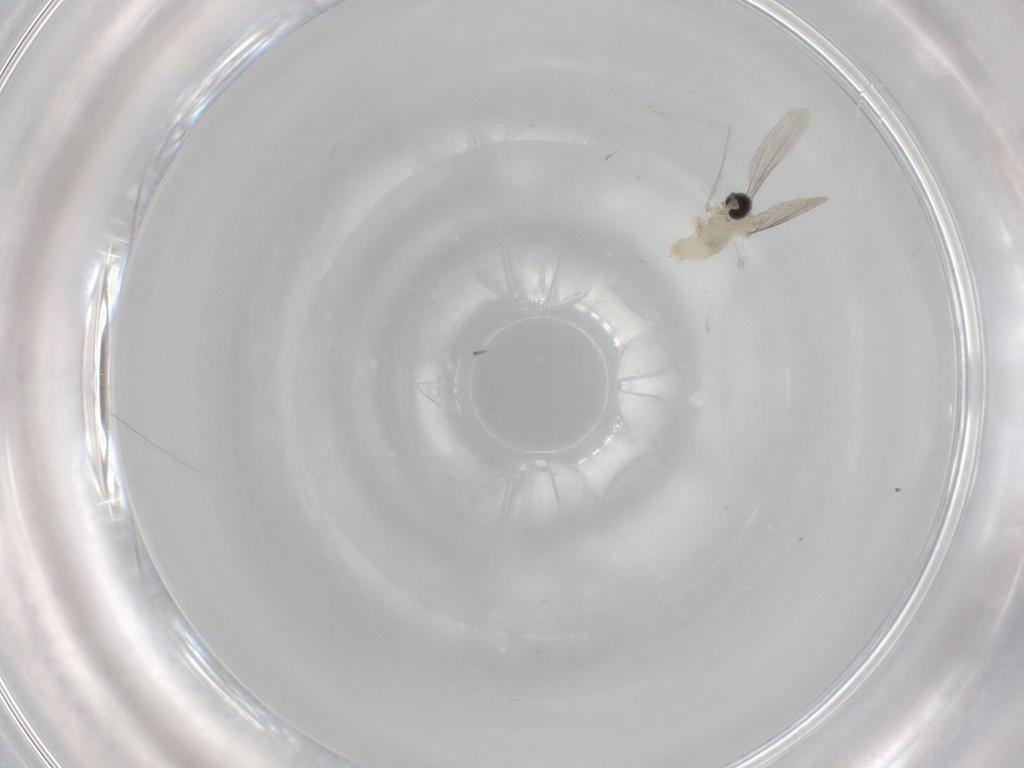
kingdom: Animalia
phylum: Arthropoda
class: Insecta
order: Diptera
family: Cecidomyiidae
